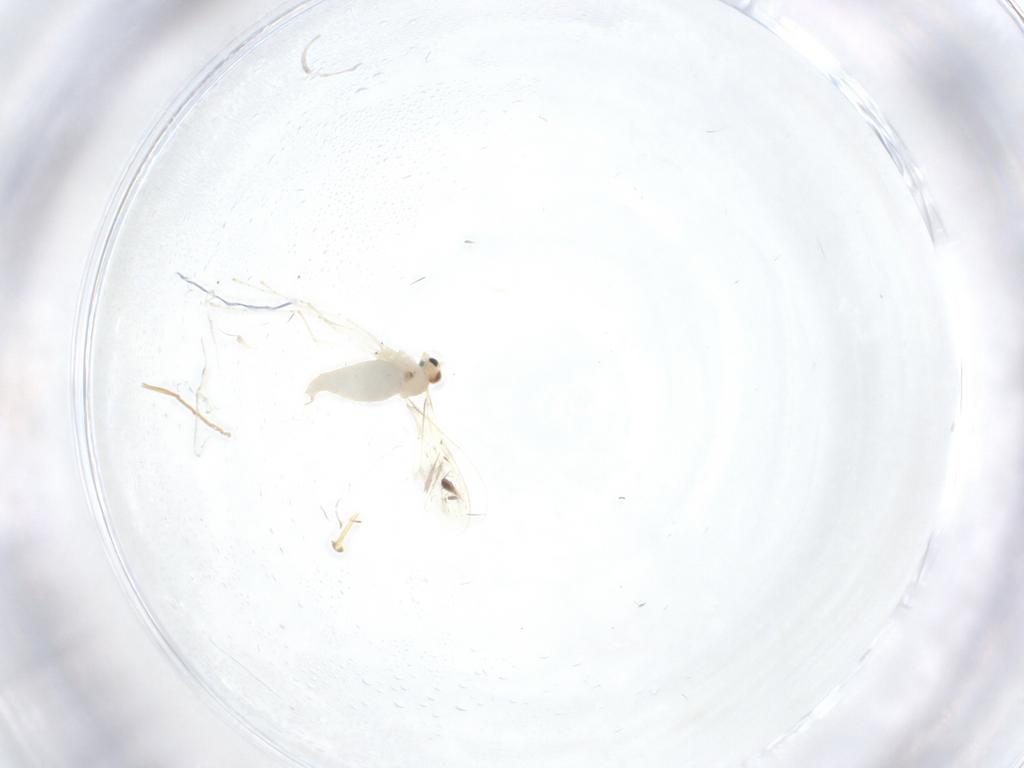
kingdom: Animalia
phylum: Arthropoda
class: Insecta
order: Diptera
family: Cecidomyiidae
